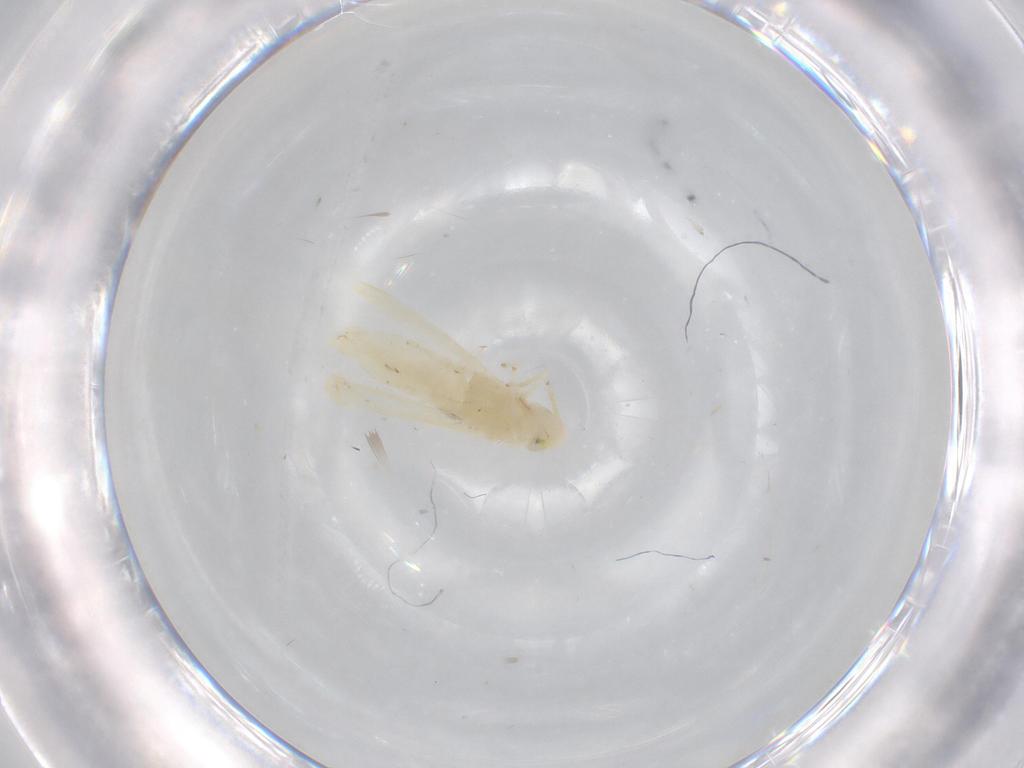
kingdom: Animalia
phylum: Arthropoda
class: Insecta
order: Hemiptera
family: Cicadellidae
